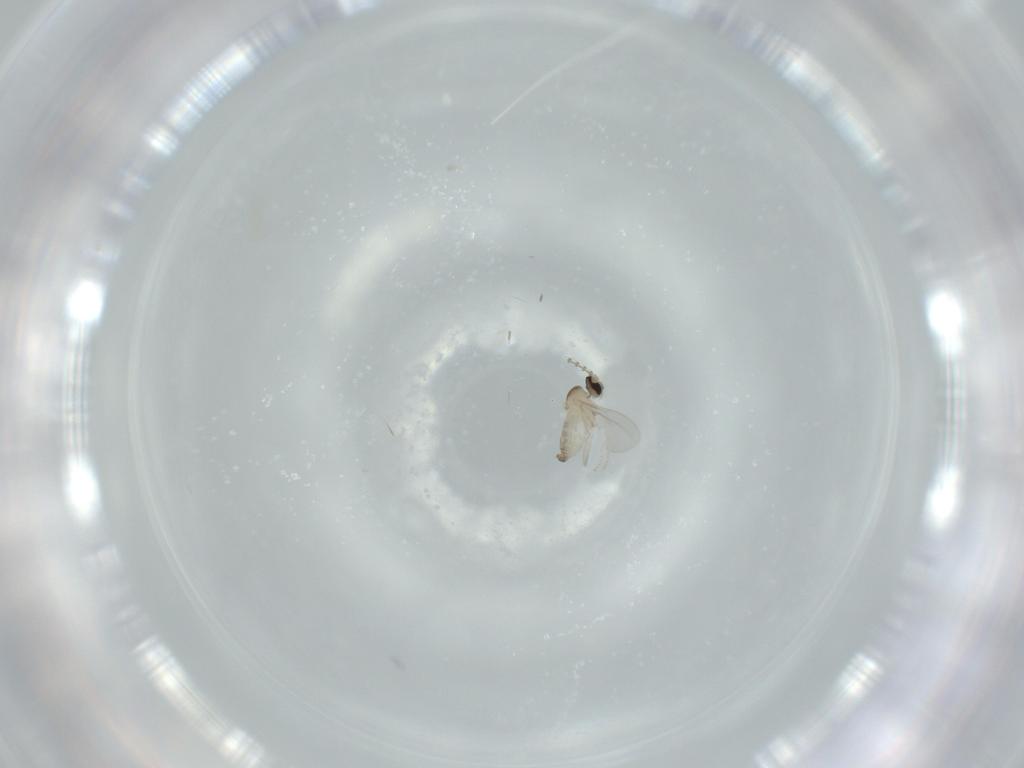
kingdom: Animalia
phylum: Arthropoda
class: Insecta
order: Diptera
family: Cecidomyiidae
